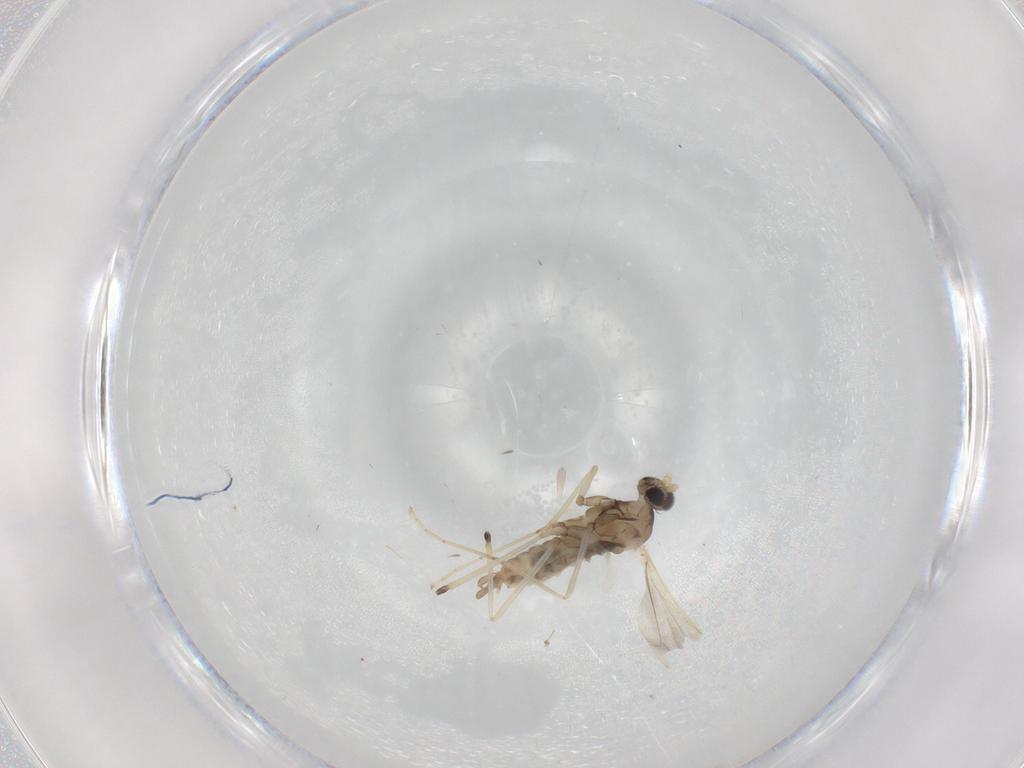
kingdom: Animalia
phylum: Arthropoda
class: Insecta
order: Diptera
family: Cecidomyiidae
